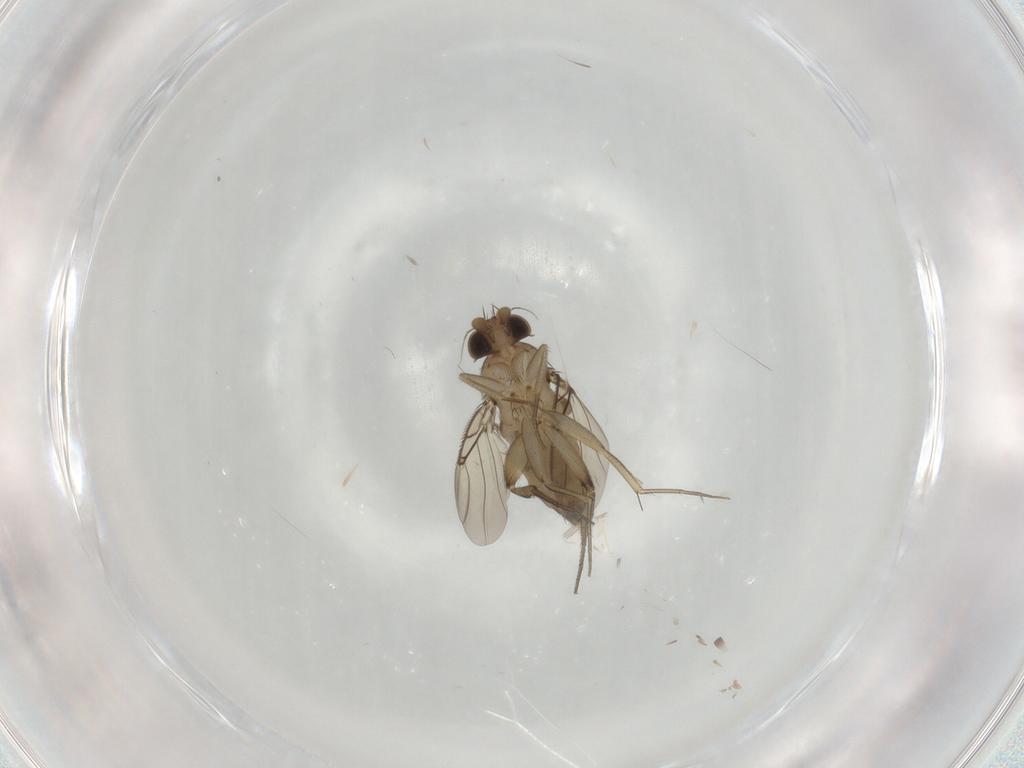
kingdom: Animalia
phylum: Arthropoda
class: Insecta
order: Diptera
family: Phoridae
